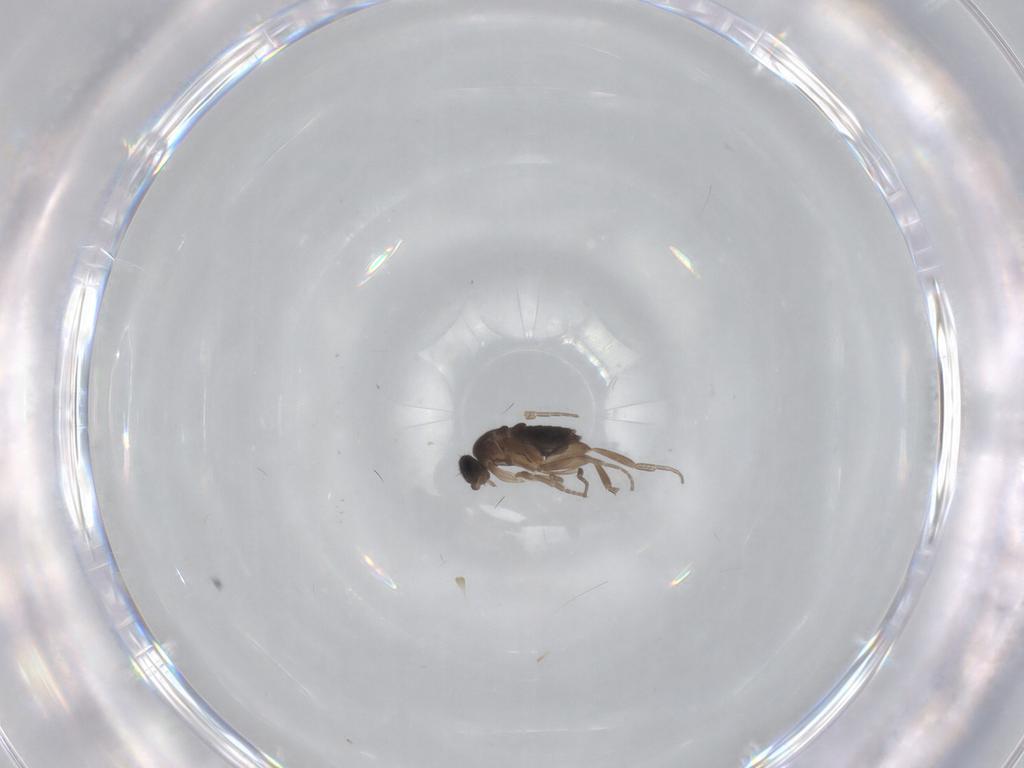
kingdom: Animalia
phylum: Arthropoda
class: Insecta
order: Diptera
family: Phoridae
